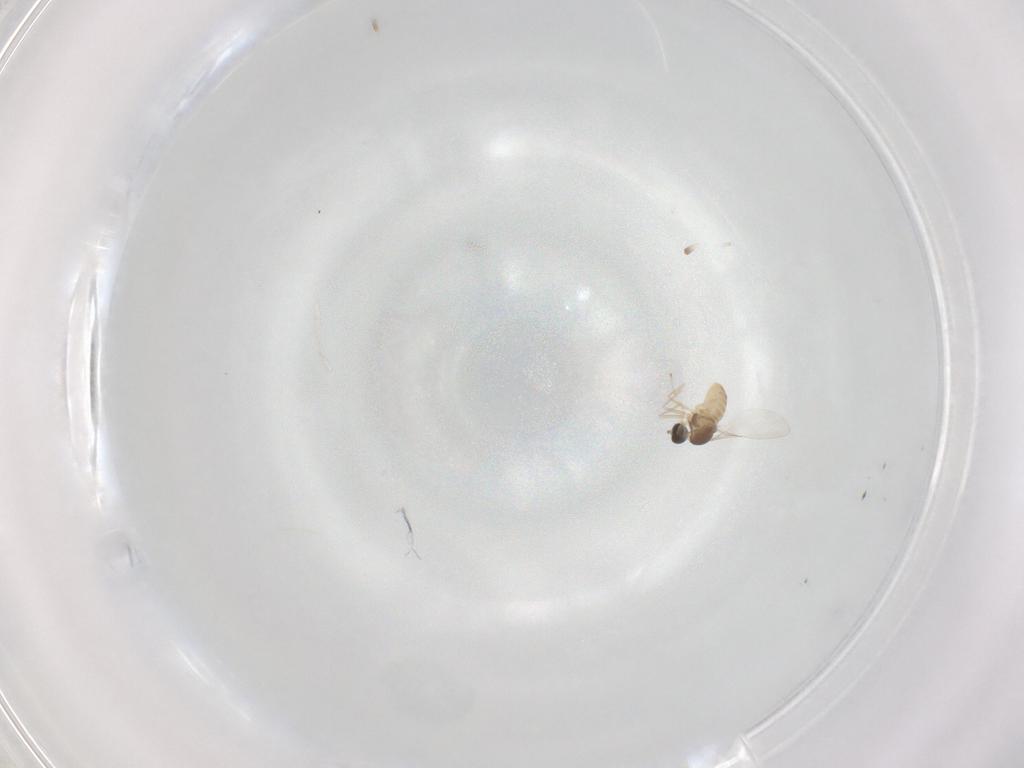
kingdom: Animalia
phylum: Arthropoda
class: Insecta
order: Diptera
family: Cecidomyiidae
